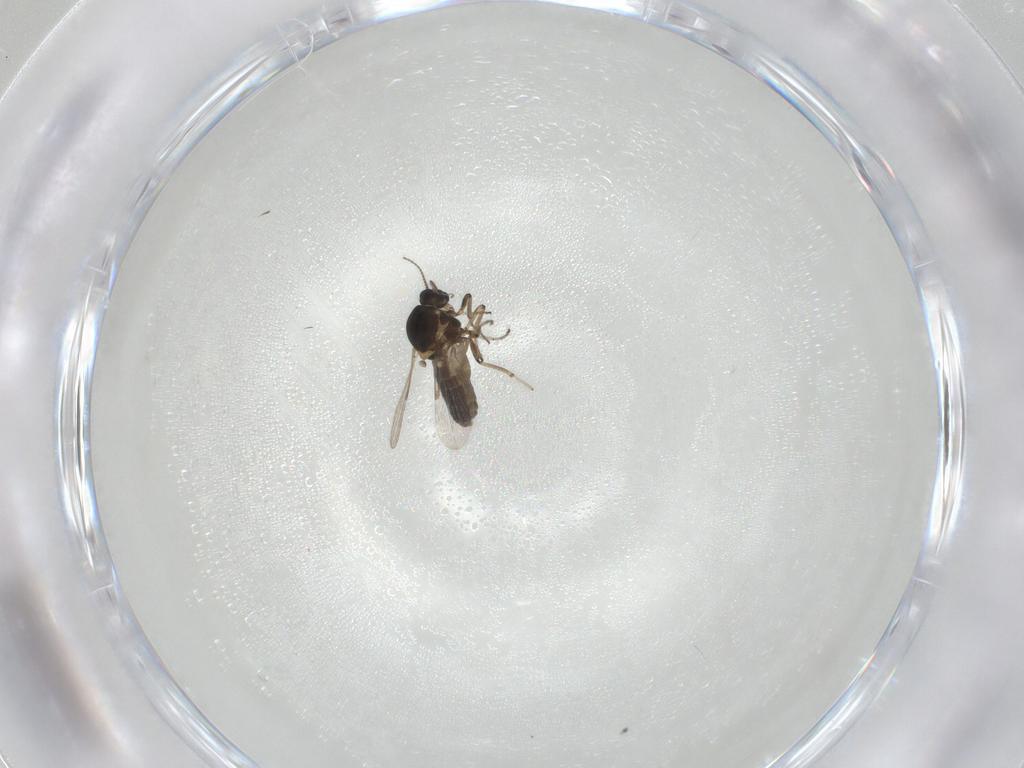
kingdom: Animalia
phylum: Arthropoda
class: Insecta
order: Diptera
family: Ceratopogonidae
